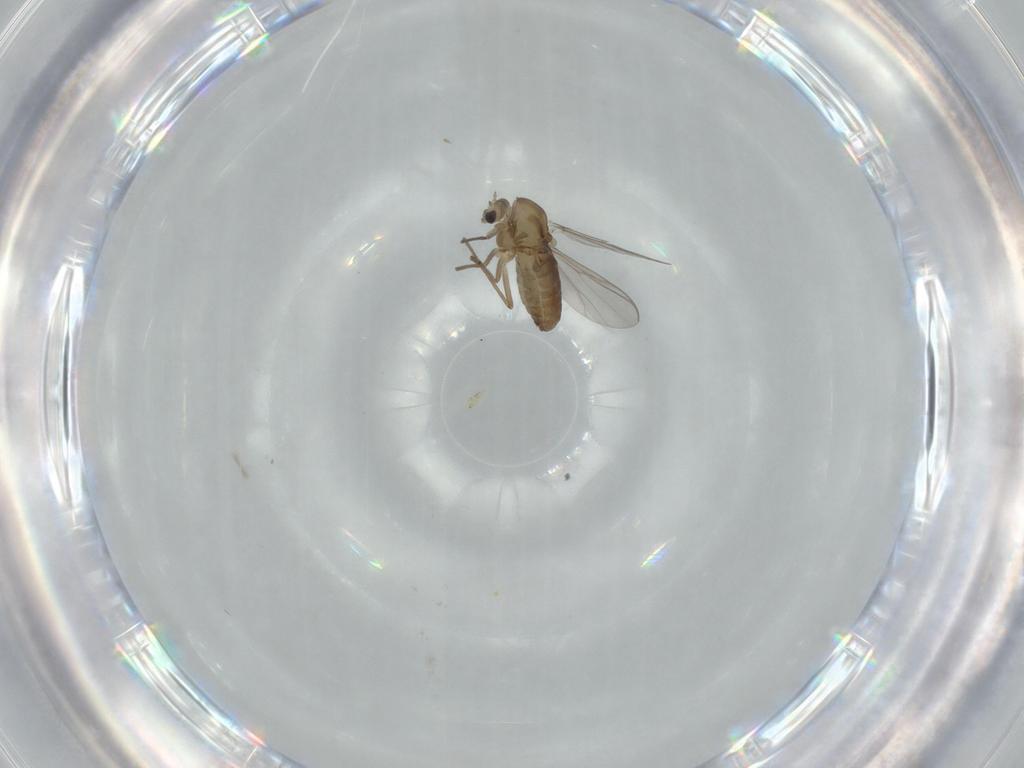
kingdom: Animalia
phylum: Arthropoda
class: Insecta
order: Diptera
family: Chironomidae
